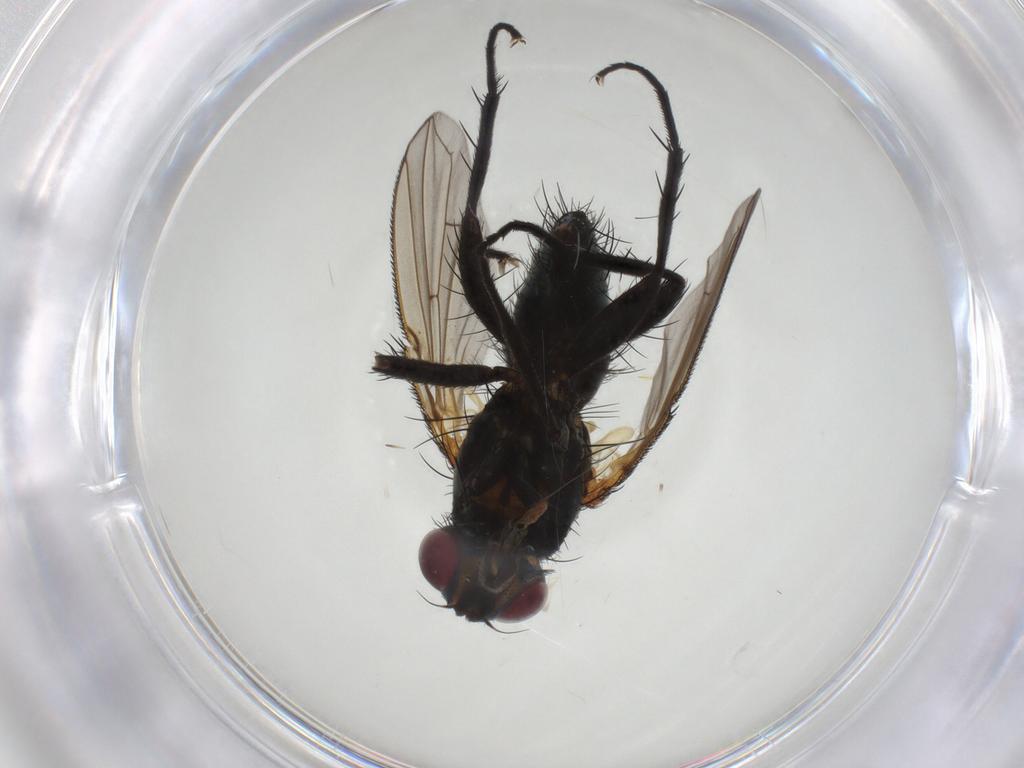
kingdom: Animalia
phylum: Arthropoda
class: Insecta
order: Diptera
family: Calliphoridae
